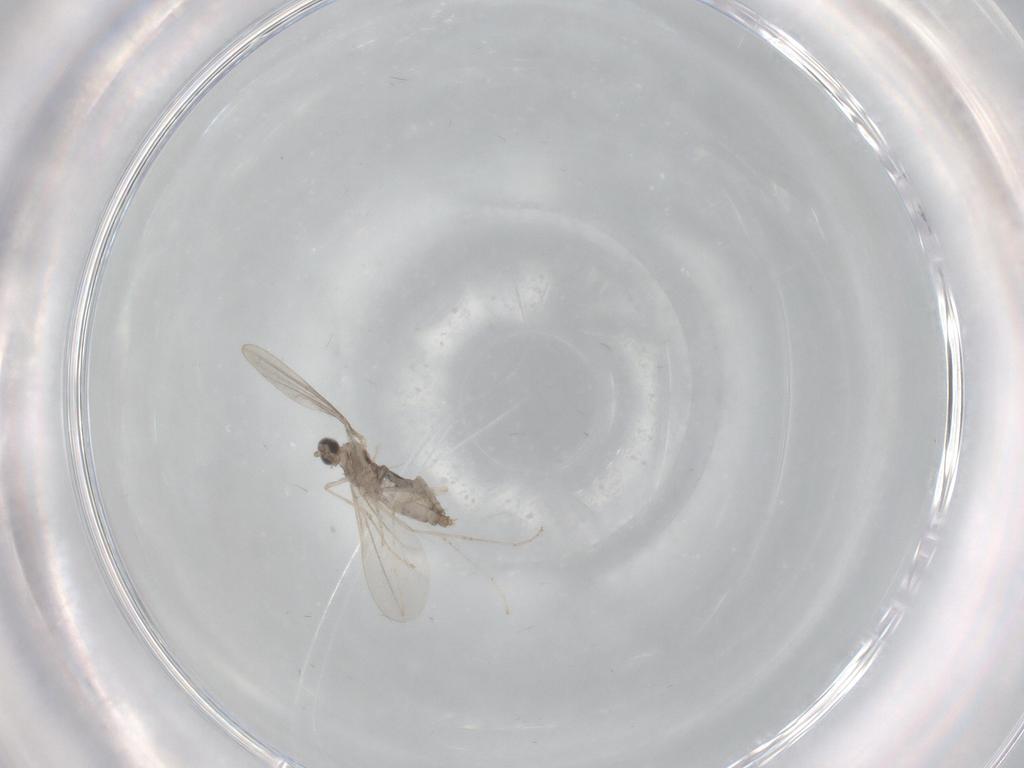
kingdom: Animalia
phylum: Arthropoda
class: Insecta
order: Diptera
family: Cecidomyiidae
